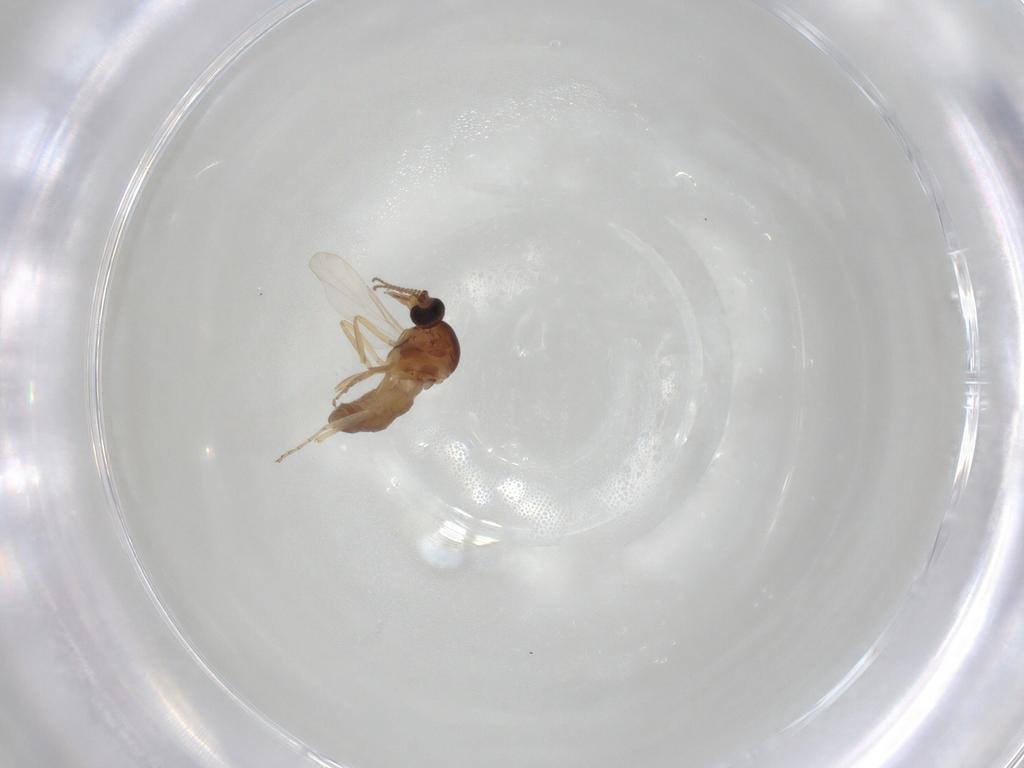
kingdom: Animalia
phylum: Arthropoda
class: Insecta
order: Diptera
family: Ceratopogonidae
